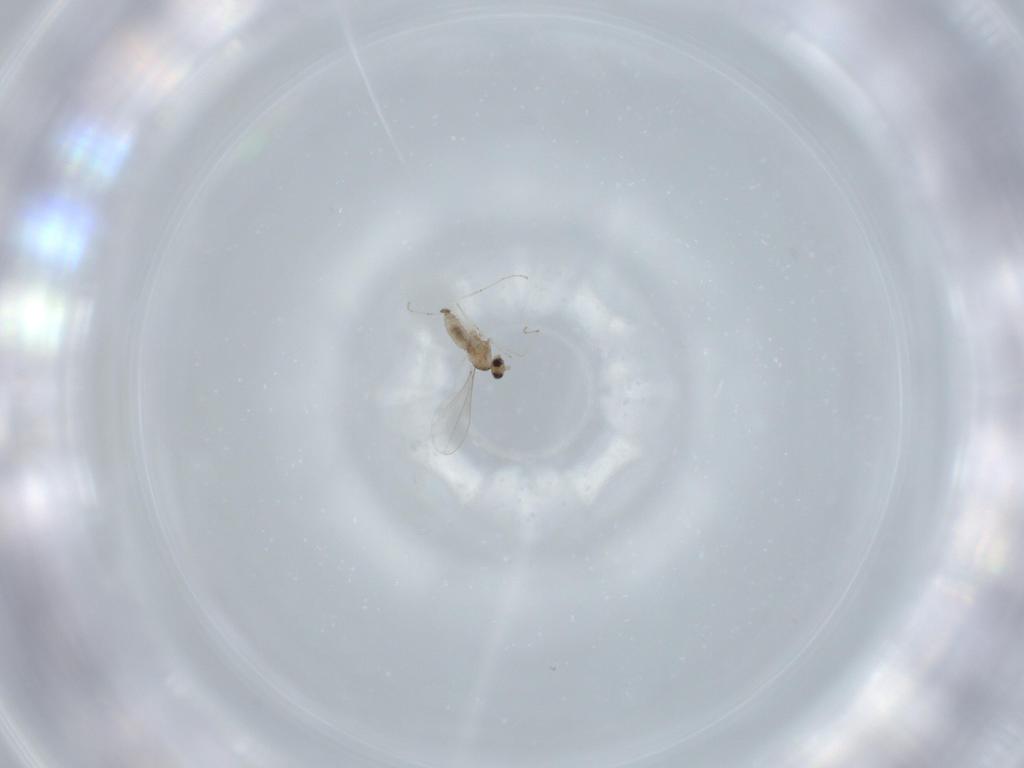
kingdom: Animalia
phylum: Arthropoda
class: Insecta
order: Diptera
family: Cecidomyiidae
